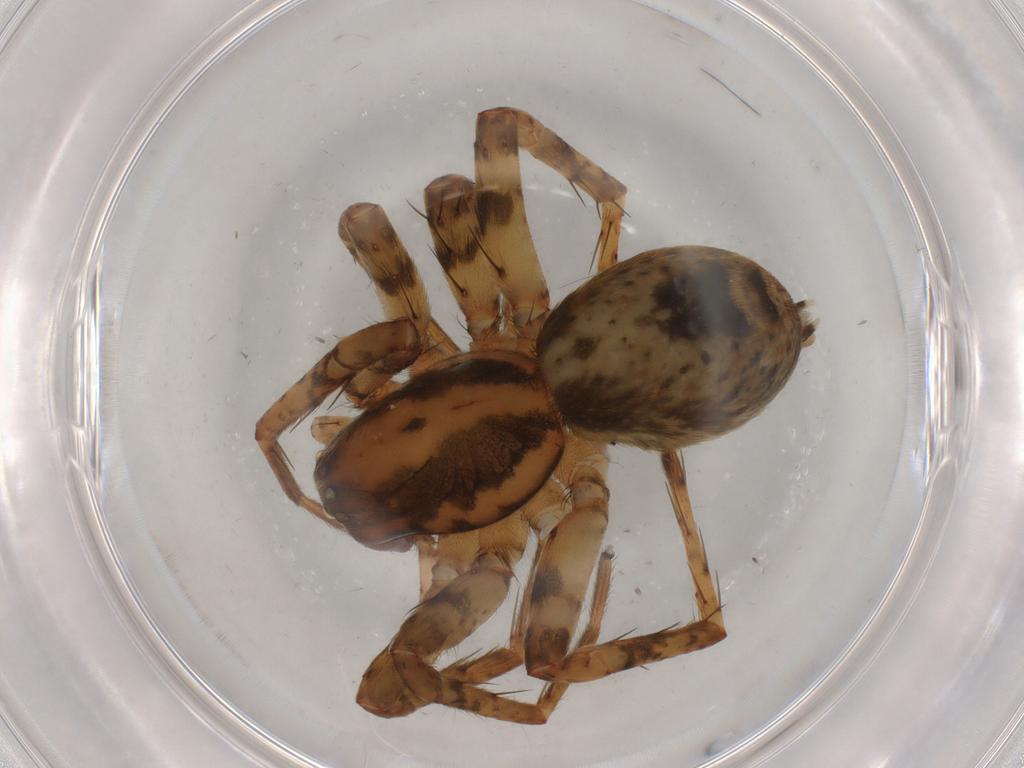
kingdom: Animalia
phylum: Arthropoda
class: Arachnida
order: Araneae
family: Anyphaenidae
